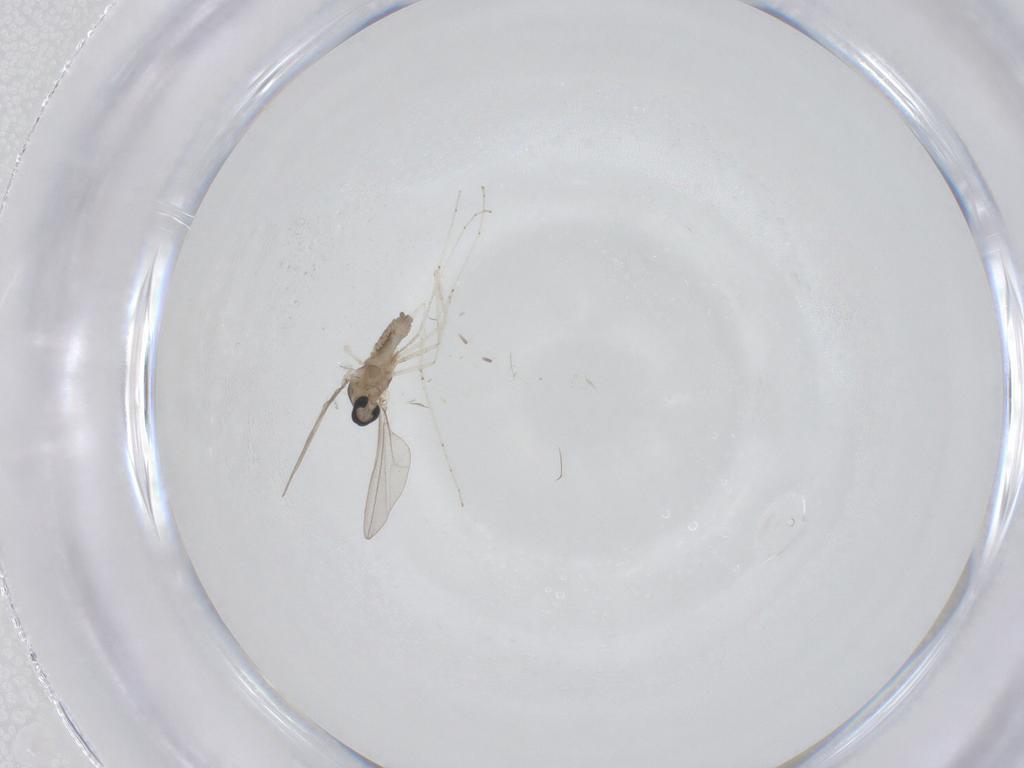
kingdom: Animalia
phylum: Arthropoda
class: Insecta
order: Diptera
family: Cecidomyiidae
